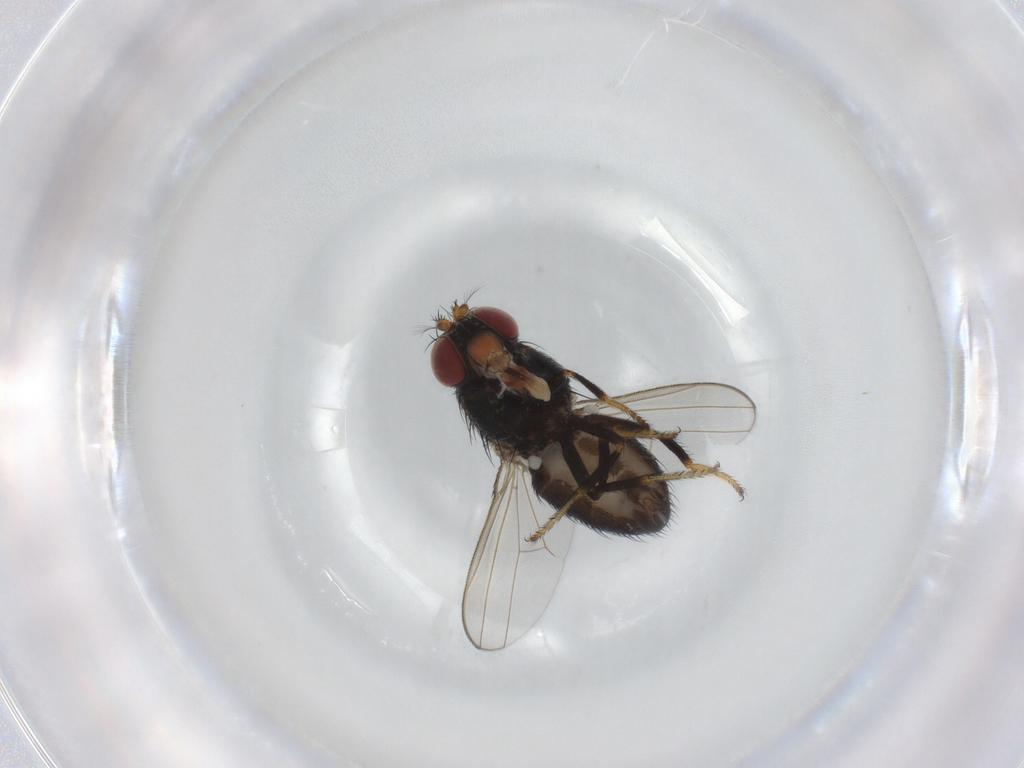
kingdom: Animalia
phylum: Arthropoda
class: Insecta
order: Diptera
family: Ephydridae
